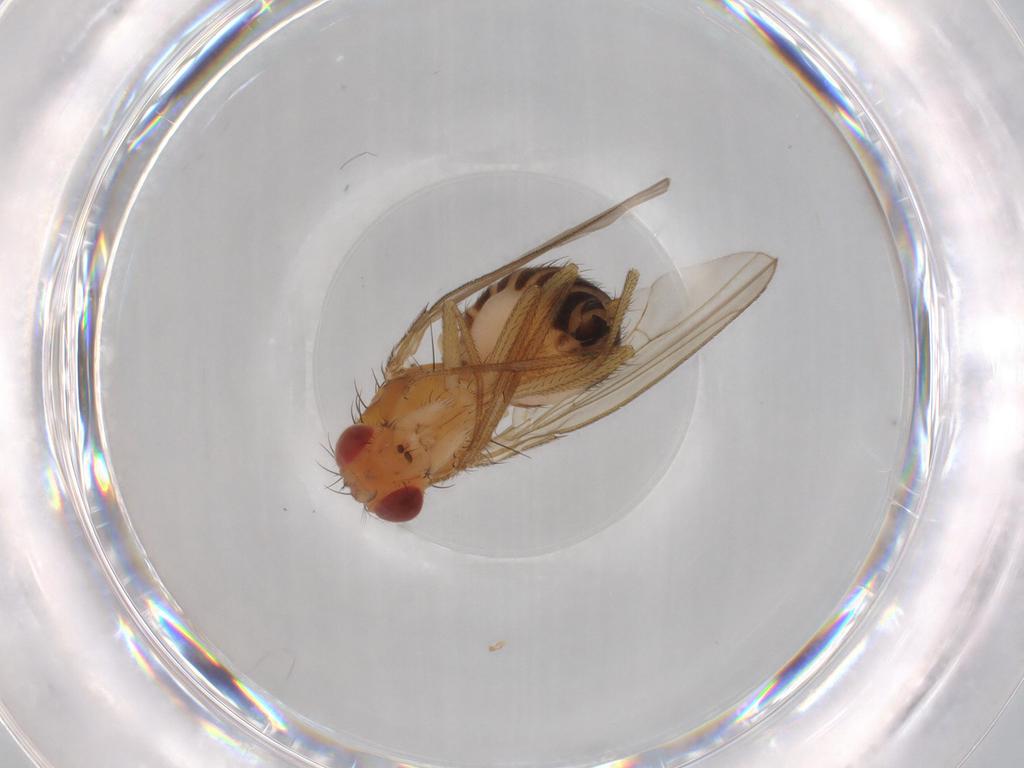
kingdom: Animalia
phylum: Arthropoda
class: Insecta
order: Diptera
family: Drosophilidae
